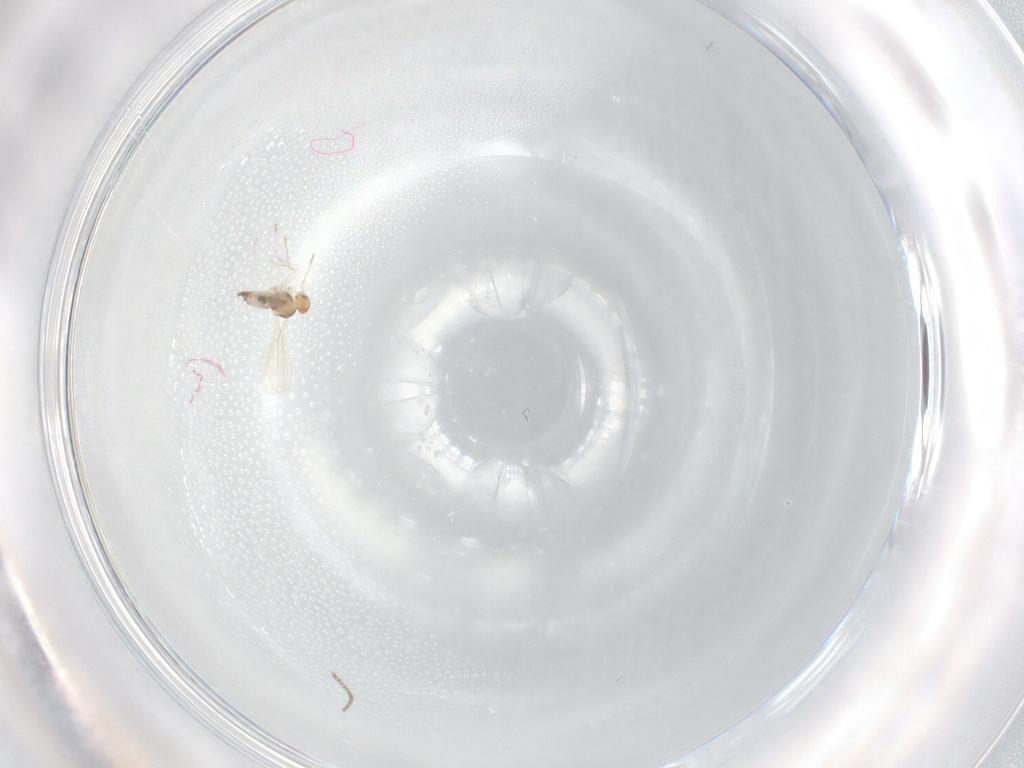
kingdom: Animalia
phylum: Arthropoda
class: Insecta
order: Diptera
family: Cecidomyiidae
